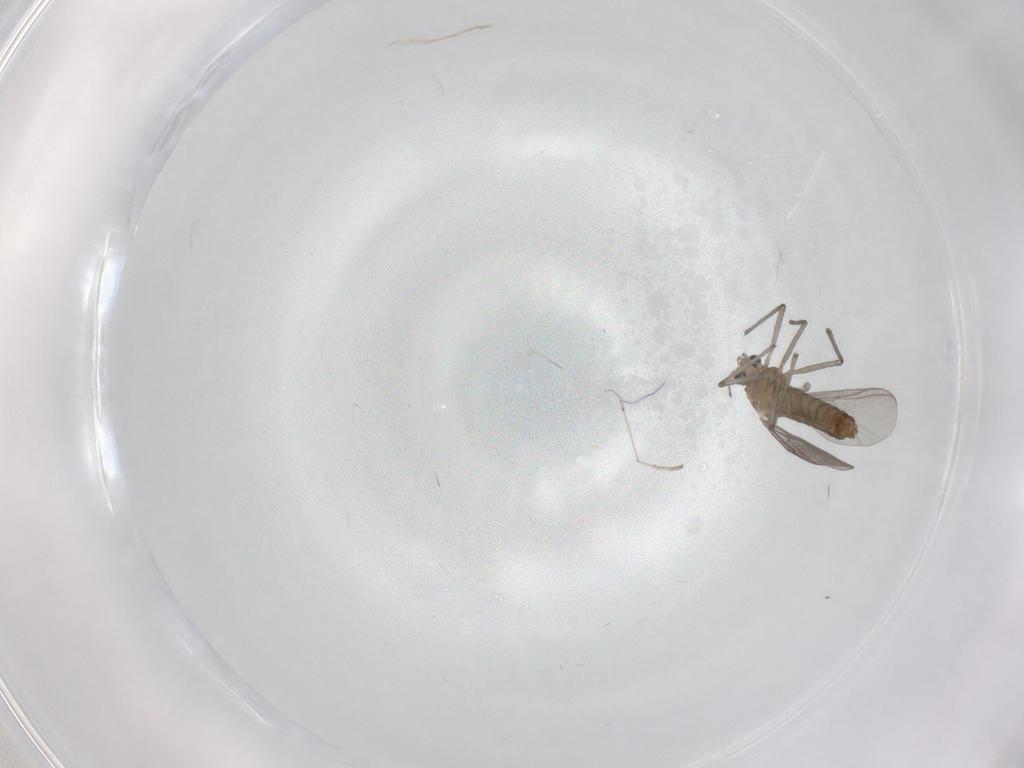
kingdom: Animalia
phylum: Arthropoda
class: Insecta
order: Diptera
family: Chironomidae
